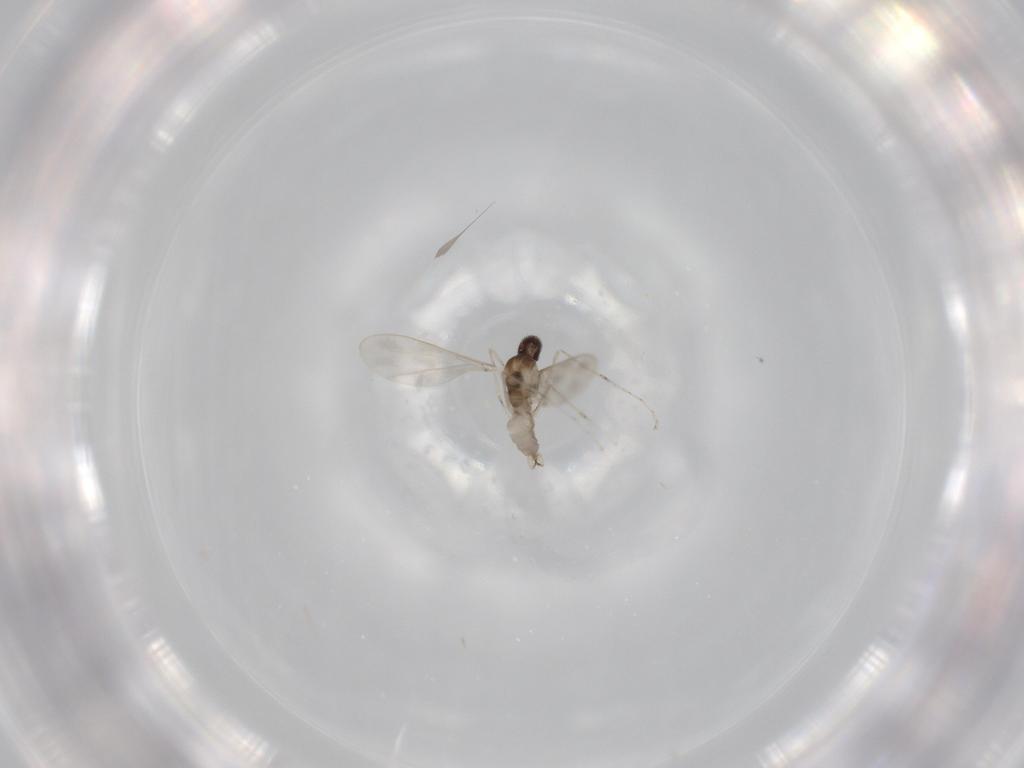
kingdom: Animalia
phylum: Arthropoda
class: Insecta
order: Diptera
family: Cecidomyiidae
